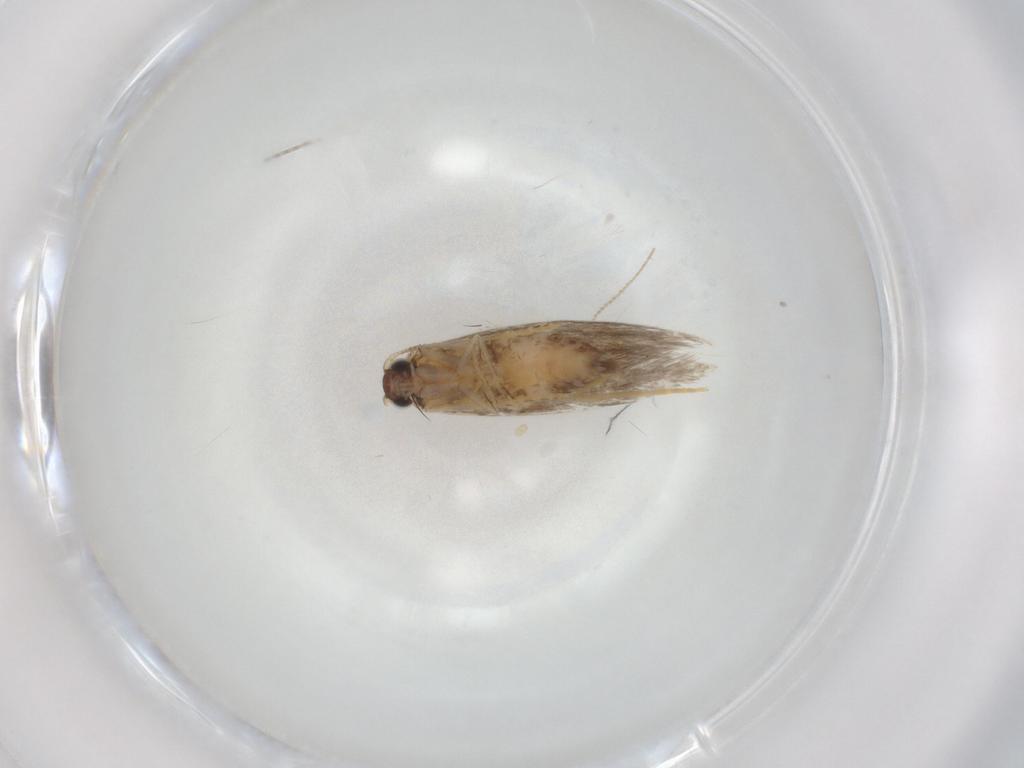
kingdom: Animalia
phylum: Arthropoda
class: Insecta
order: Lepidoptera
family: Tineidae
